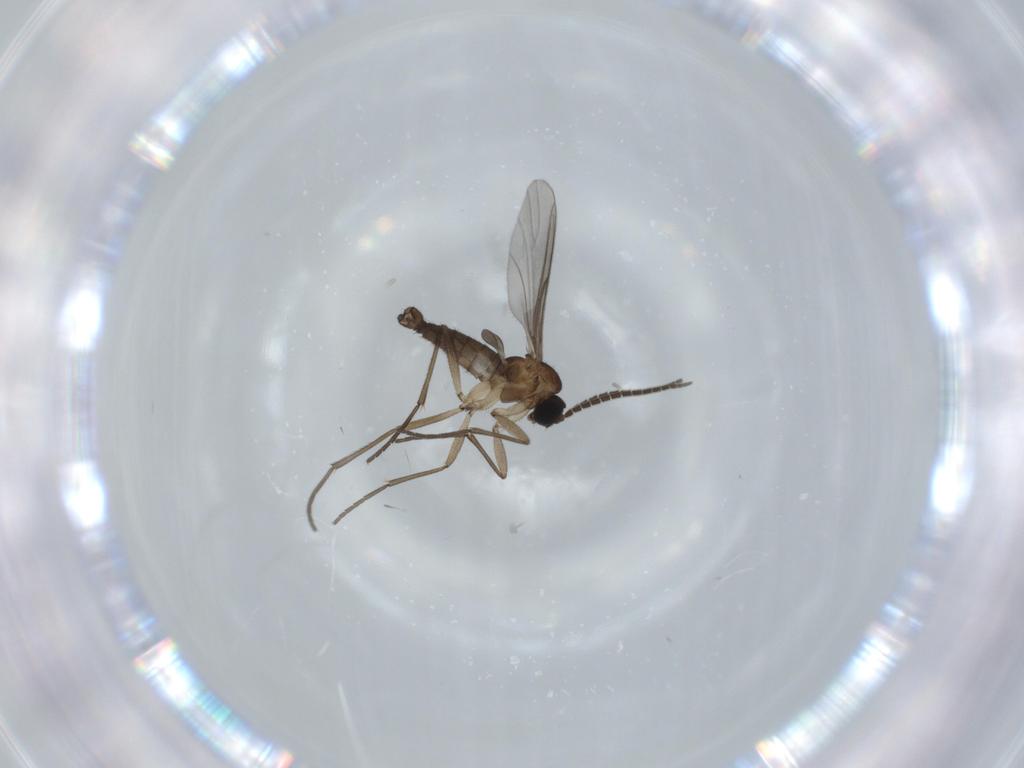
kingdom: Animalia
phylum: Arthropoda
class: Insecta
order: Diptera
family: Sciaridae
